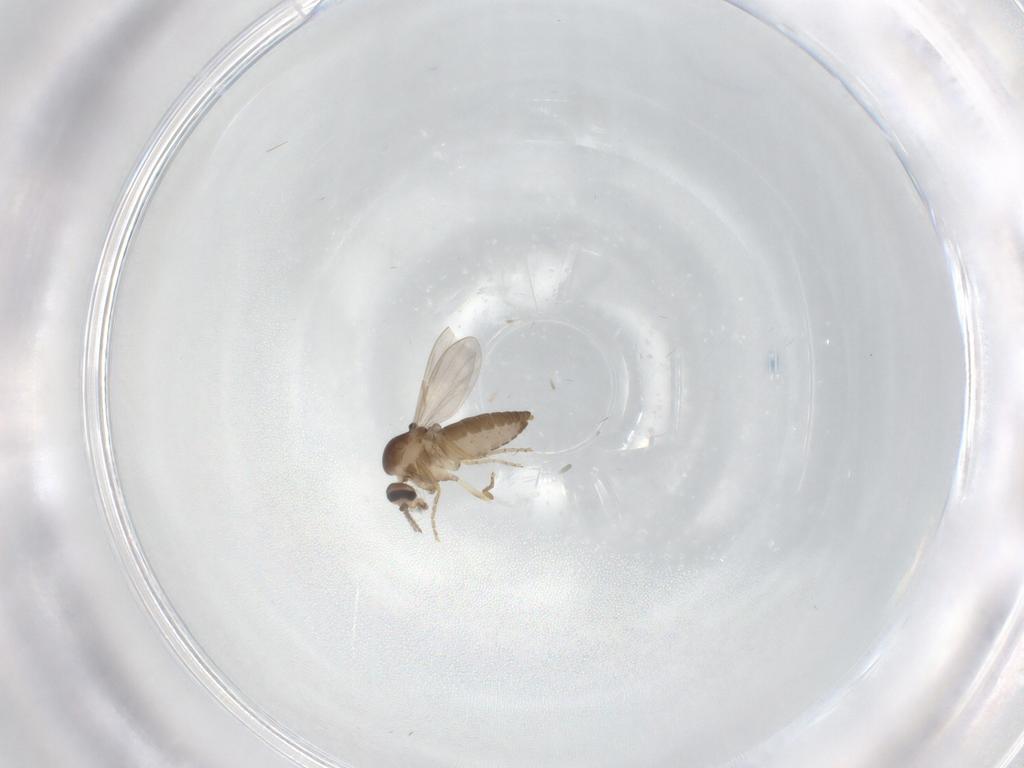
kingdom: Animalia
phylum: Arthropoda
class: Insecta
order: Diptera
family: Ceratopogonidae
